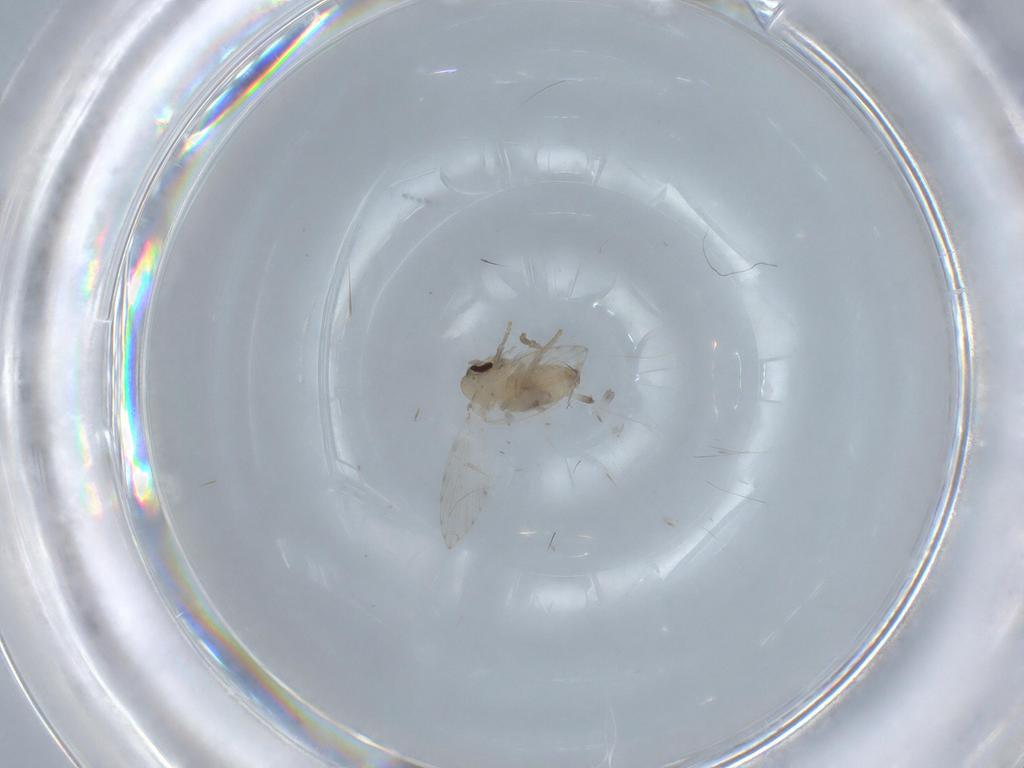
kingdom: Animalia
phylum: Arthropoda
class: Insecta
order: Diptera
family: Psychodidae
